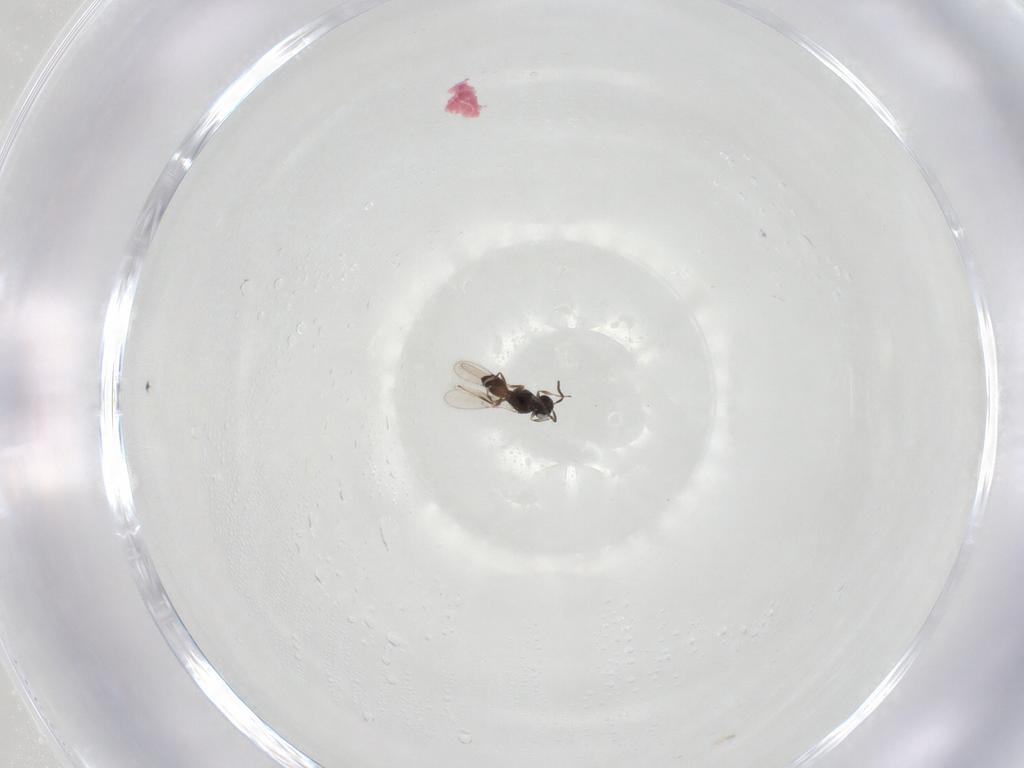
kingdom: Animalia
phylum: Arthropoda
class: Insecta
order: Hymenoptera
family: Scelionidae
